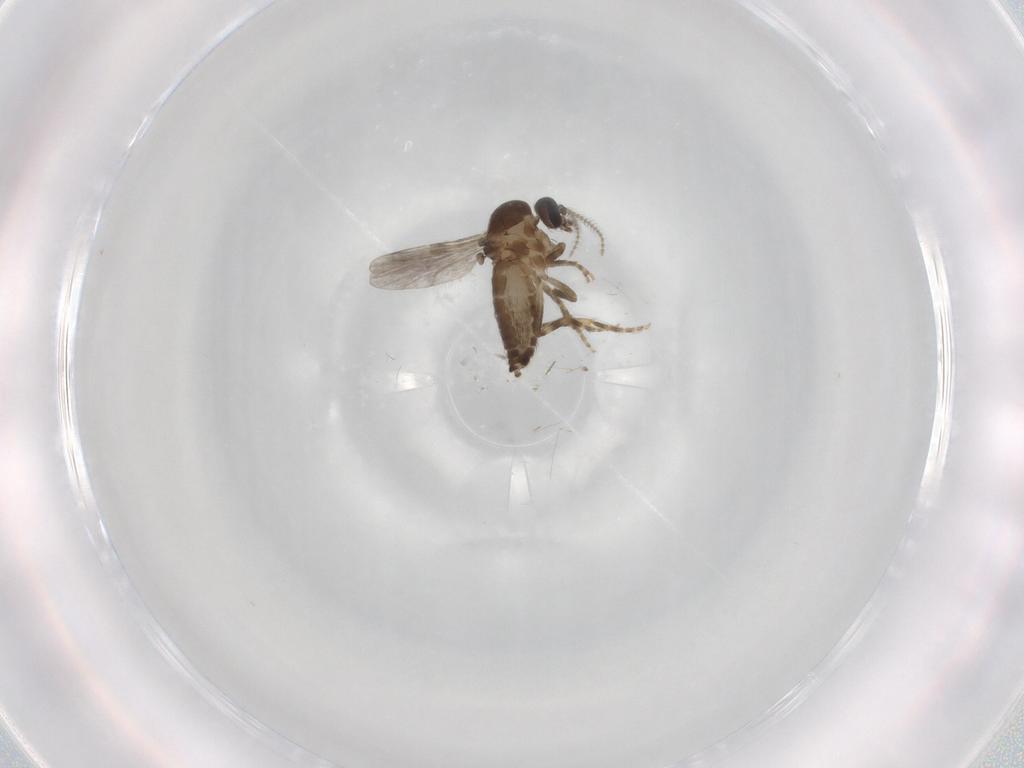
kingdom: Animalia
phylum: Arthropoda
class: Insecta
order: Diptera
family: Ceratopogonidae
